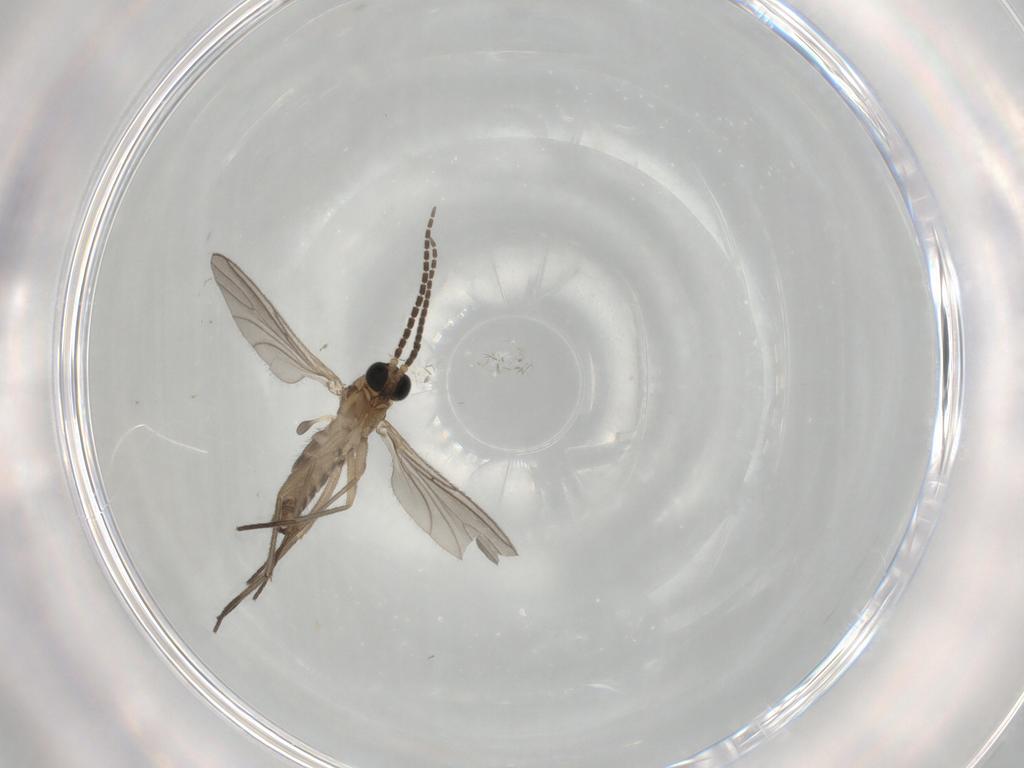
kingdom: Animalia
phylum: Arthropoda
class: Insecta
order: Diptera
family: Sciaridae
